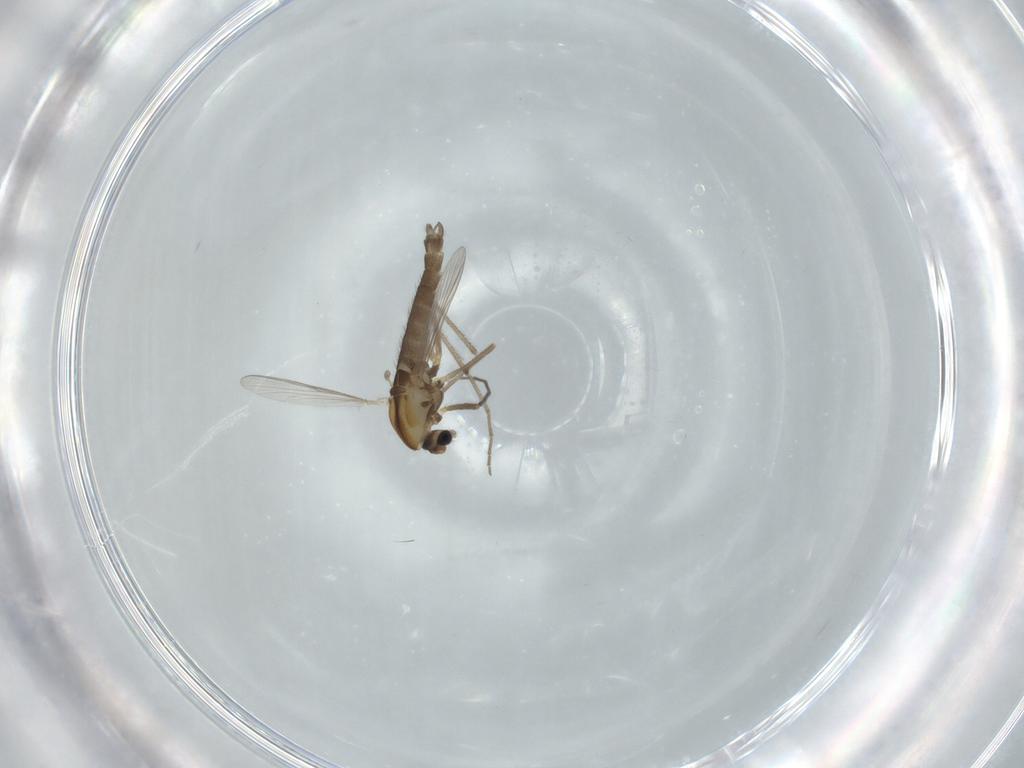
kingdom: Animalia
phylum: Arthropoda
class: Insecta
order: Diptera
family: Chironomidae
